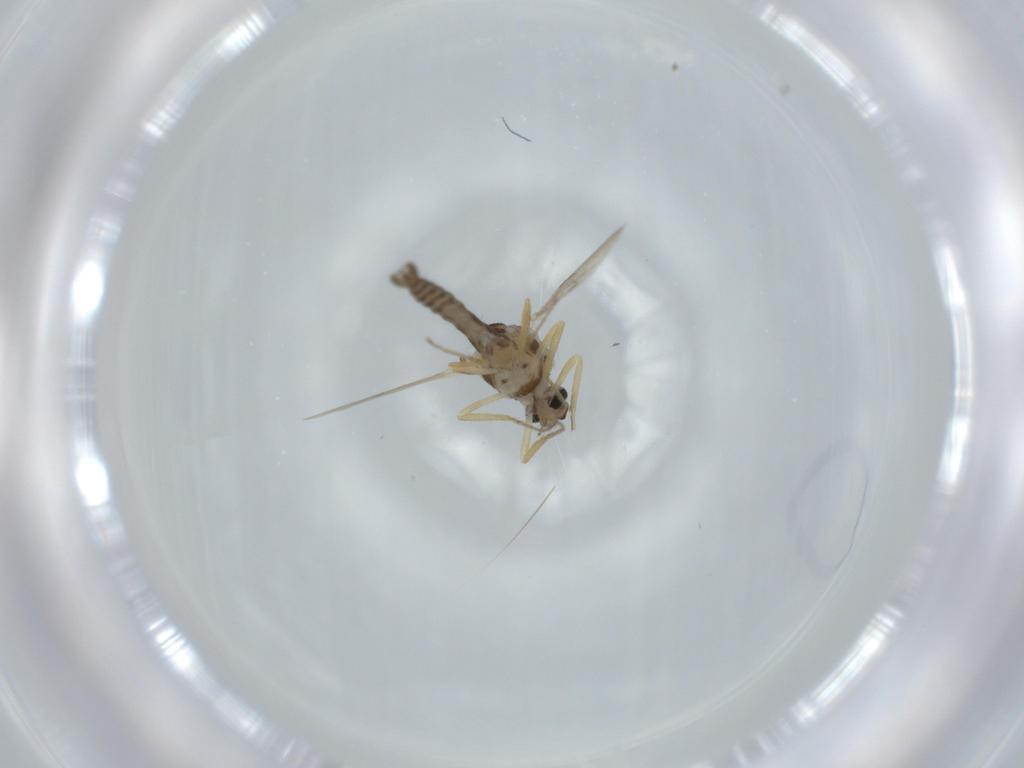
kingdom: Animalia
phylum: Arthropoda
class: Insecta
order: Diptera
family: Ceratopogonidae
